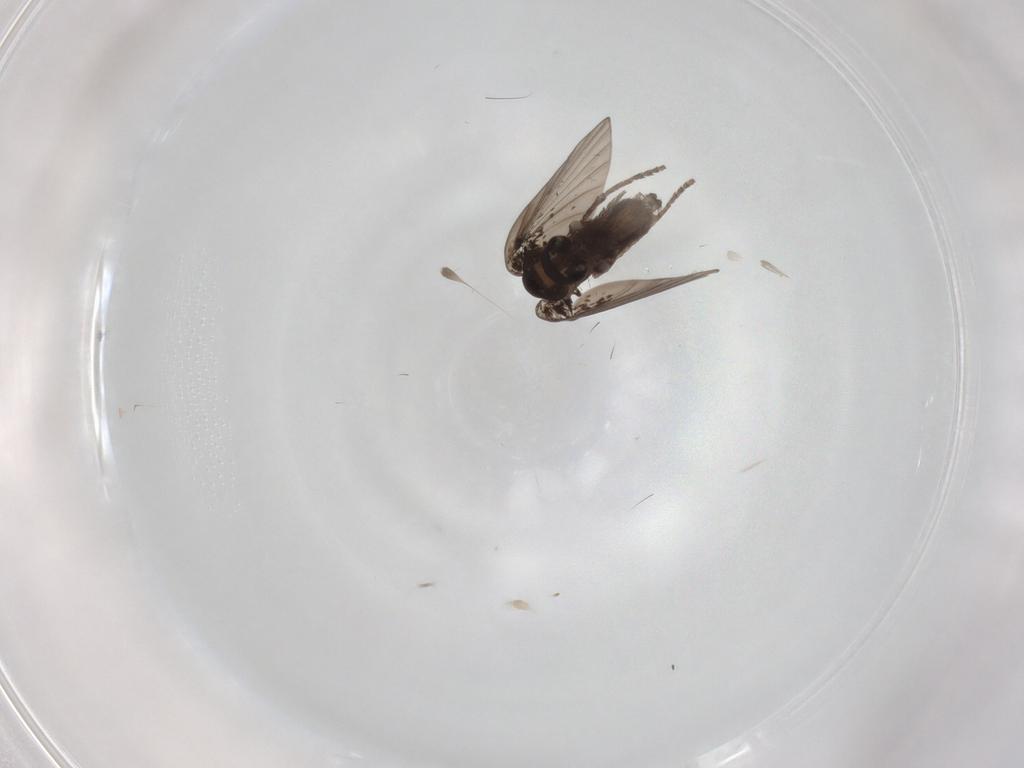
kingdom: Animalia
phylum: Arthropoda
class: Insecta
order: Diptera
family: Psychodidae
